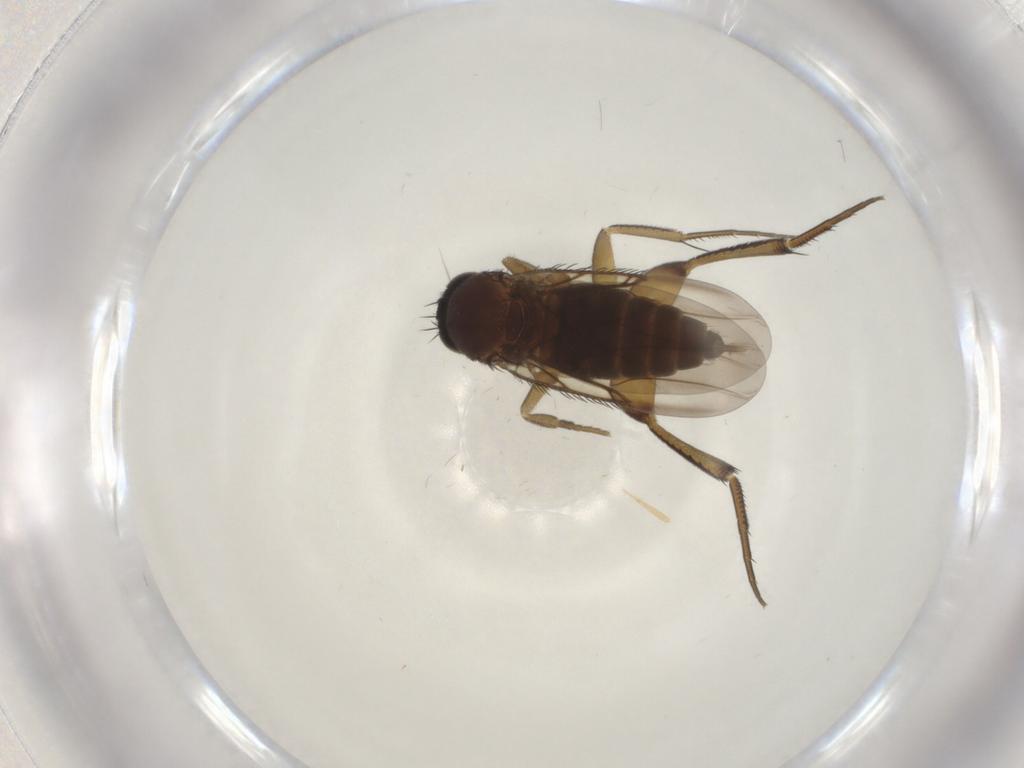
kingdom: Animalia
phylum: Arthropoda
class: Insecta
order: Diptera
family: Phoridae
